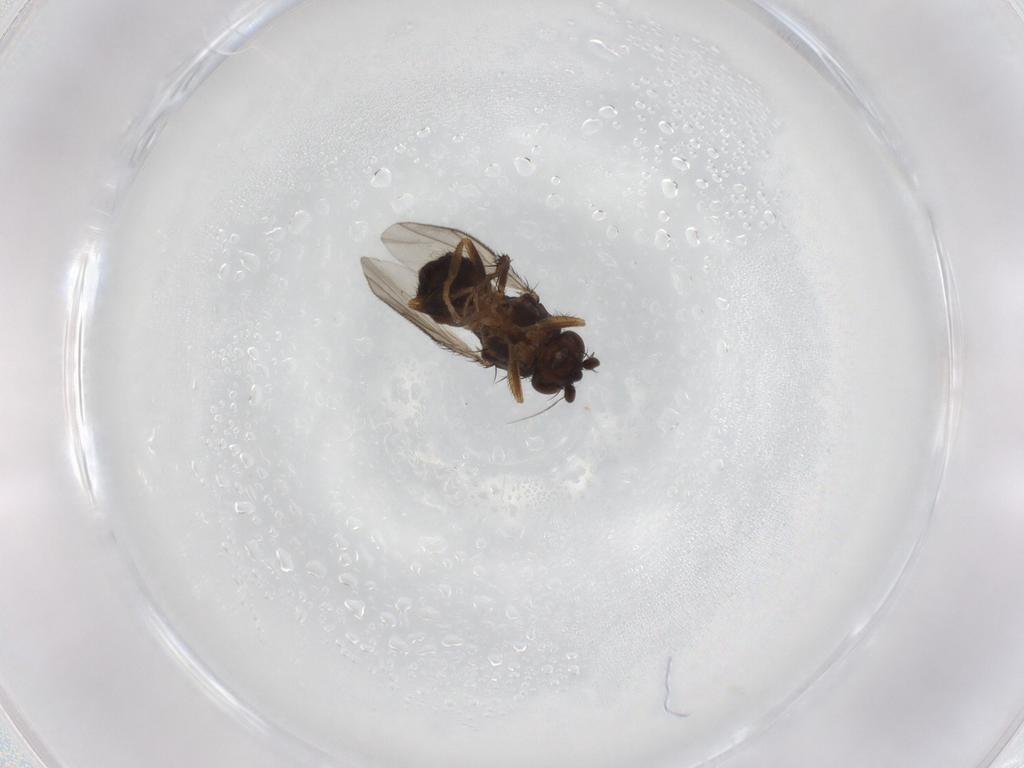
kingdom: Animalia
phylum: Arthropoda
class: Insecta
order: Diptera
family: Sphaeroceridae
